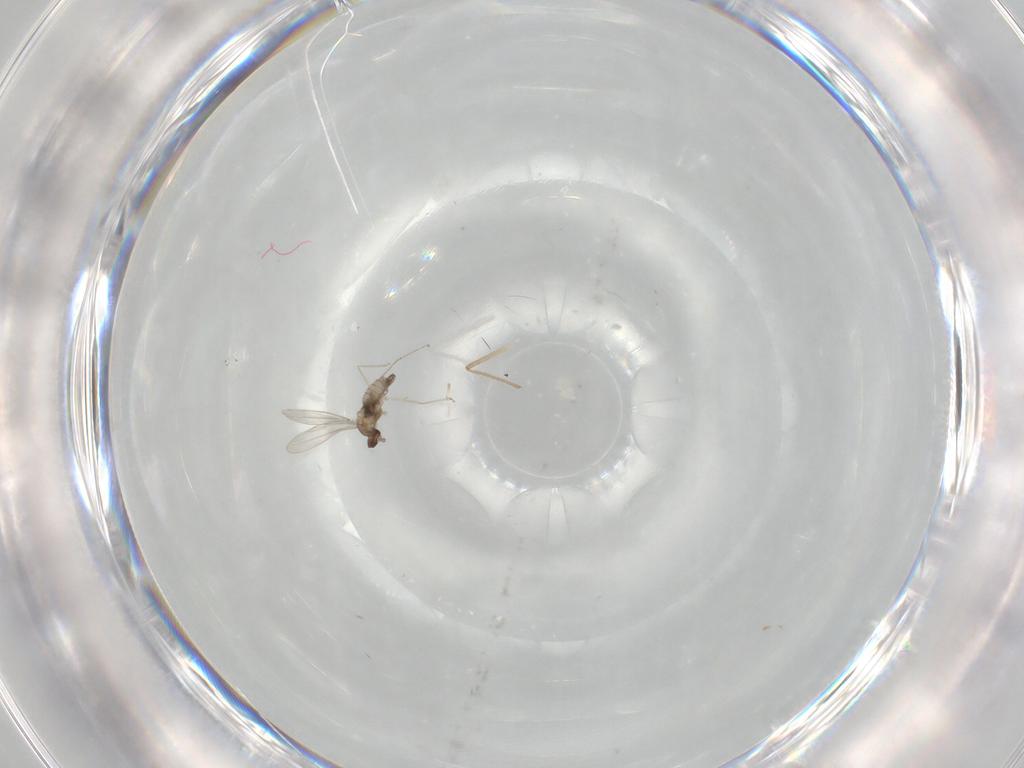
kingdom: Animalia
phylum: Arthropoda
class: Insecta
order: Diptera
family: Cecidomyiidae
